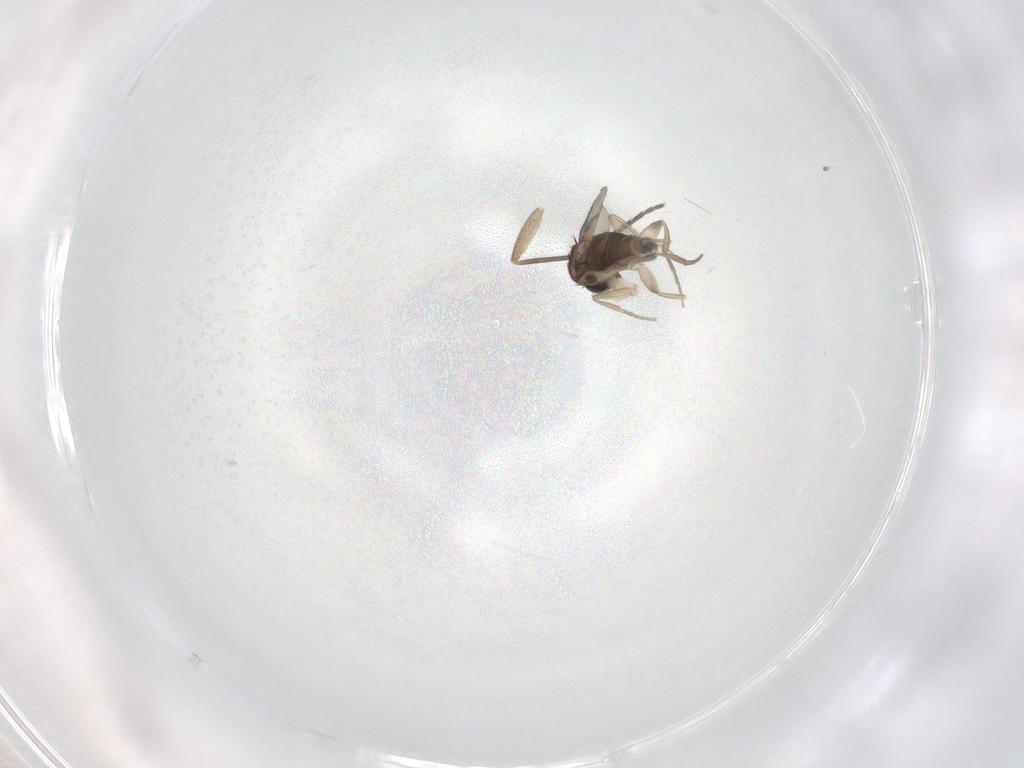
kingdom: Animalia
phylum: Arthropoda
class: Insecta
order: Diptera
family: Phoridae
